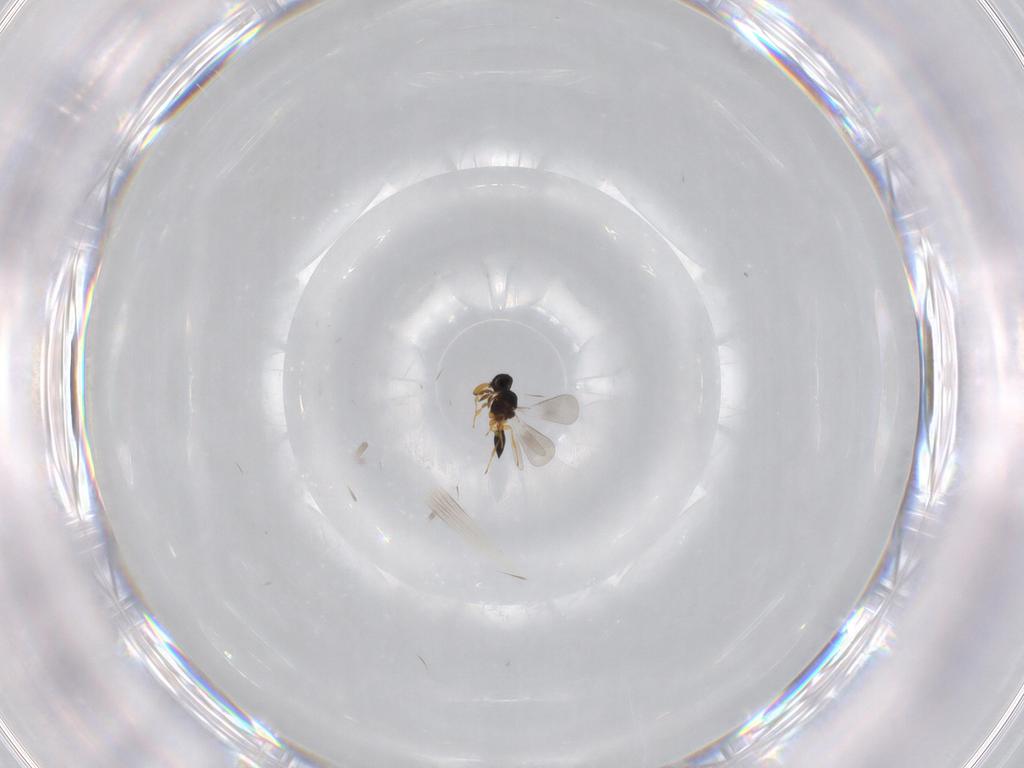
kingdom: Animalia
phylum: Arthropoda
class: Insecta
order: Hymenoptera
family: Platygastridae
